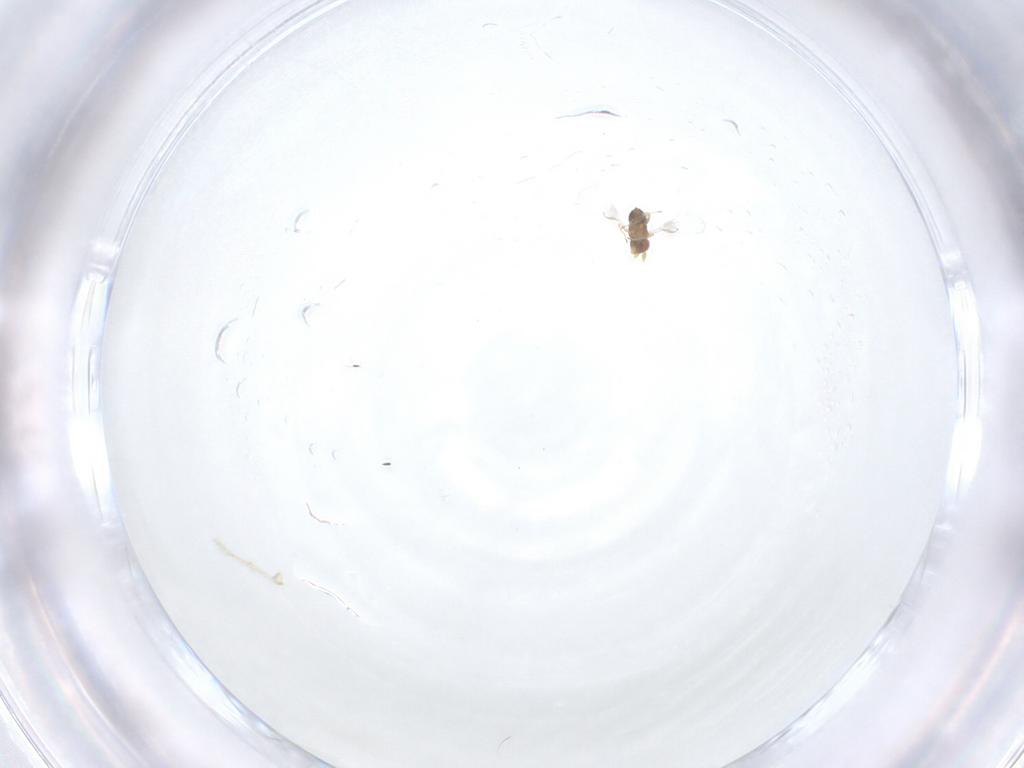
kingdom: Animalia
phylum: Arthropoda
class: Insecta
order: Hymenoptera
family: Trichogrammatidae
